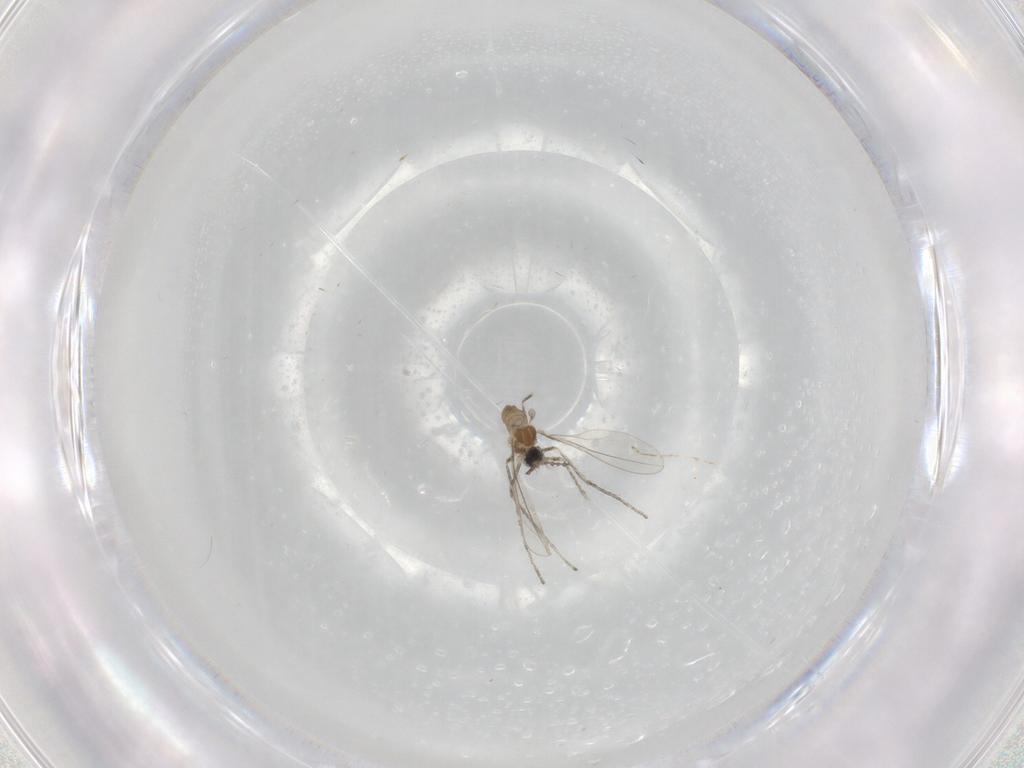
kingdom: Animalia
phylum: Arthropoda
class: Insecta
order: Diptera
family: Cecidomyiidae
